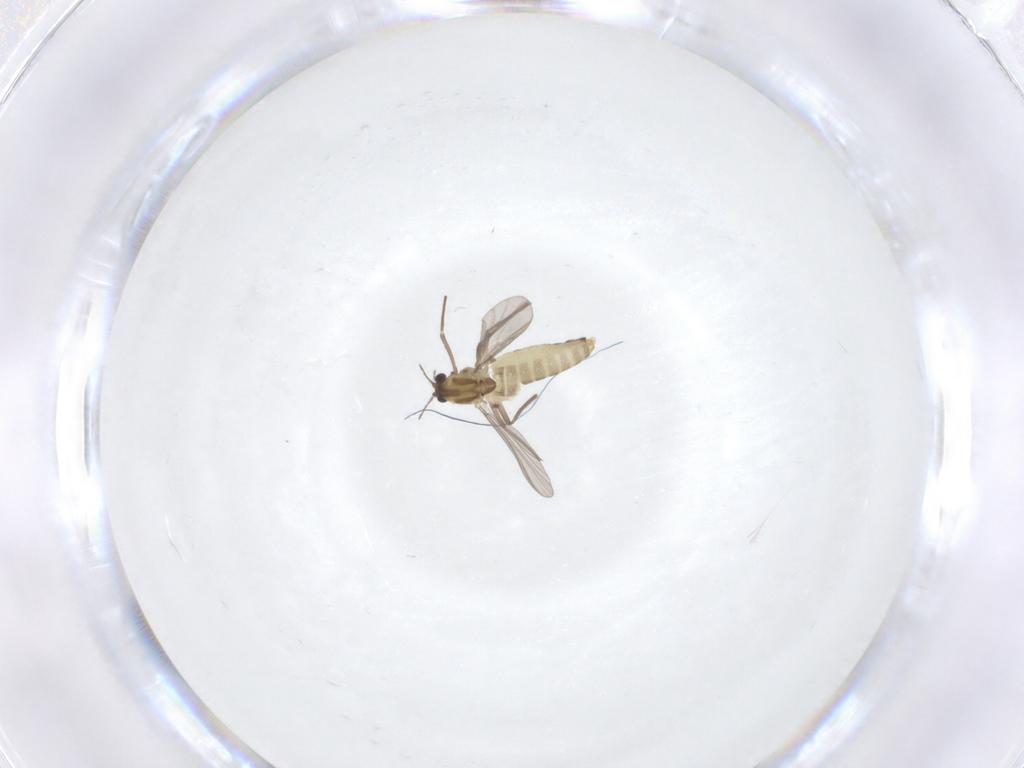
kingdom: Animalia
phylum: Arthropoda
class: Insecta
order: Diptera
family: Chironomidae
